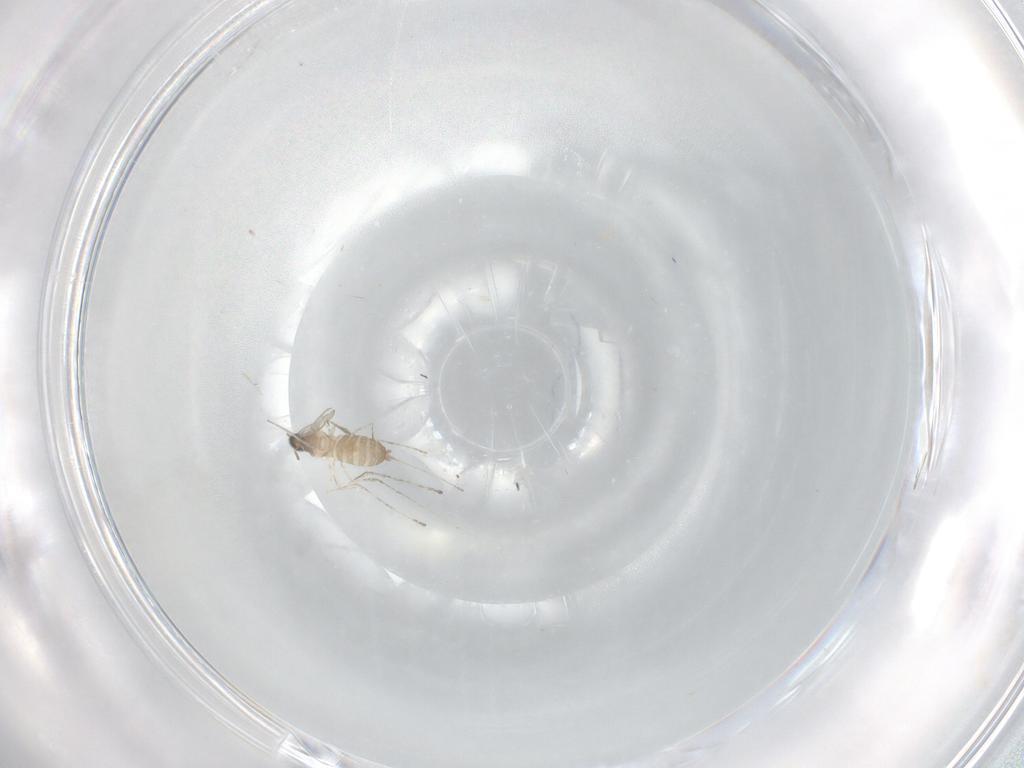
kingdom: Animalia
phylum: Arthropoda
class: Insecta
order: Diptera
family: Cecidomyiidae
